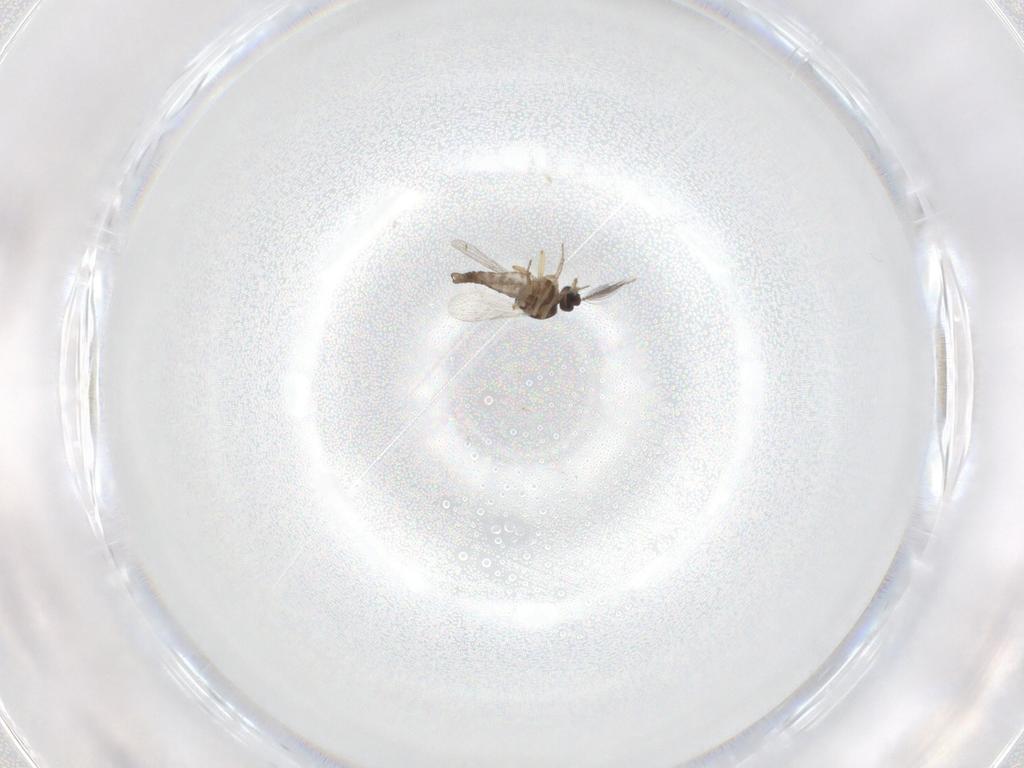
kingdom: Animalia
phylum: Arthropoda
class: Insecta
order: Diptera
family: Ceratopogonidae
